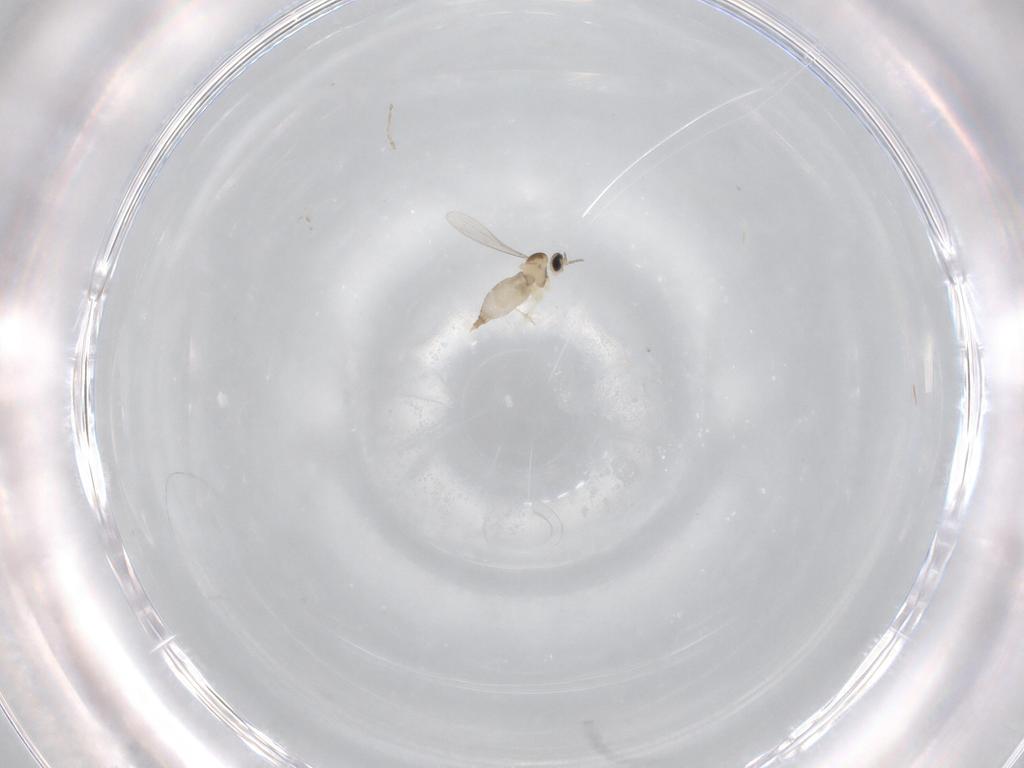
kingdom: Animalia
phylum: Arthropoda
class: Insecta
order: Diptera
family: Cecidomyiidae
